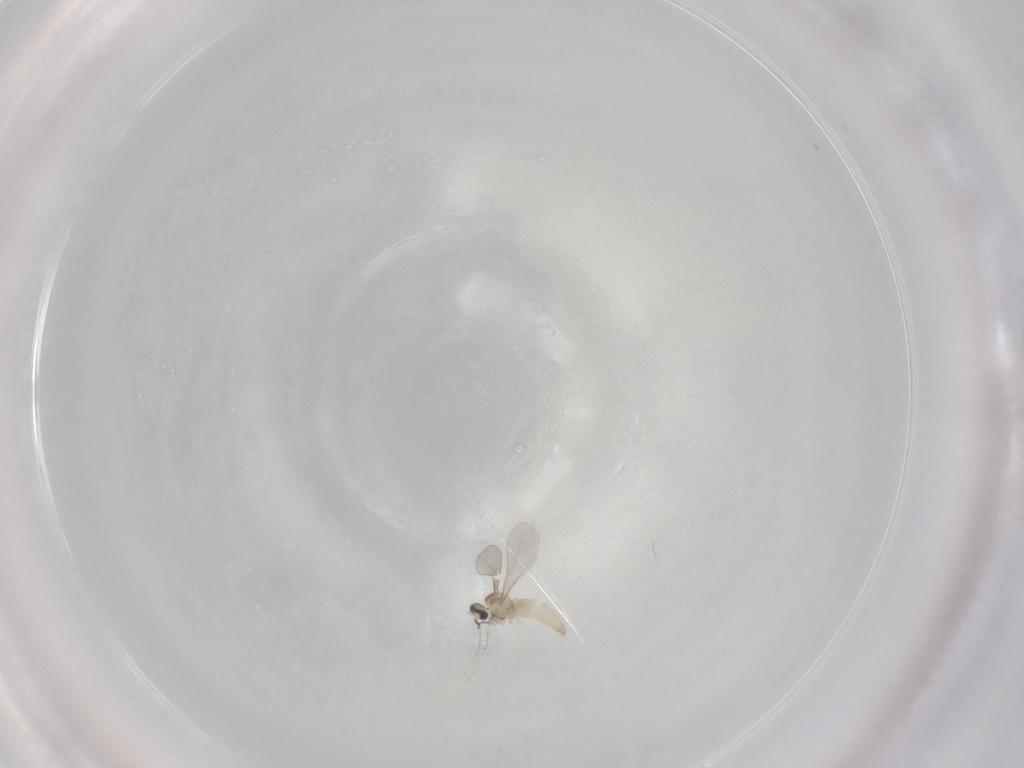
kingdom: Animalia
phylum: Arthropoda
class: Insecta
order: Diptera
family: Cecidomyiidae
